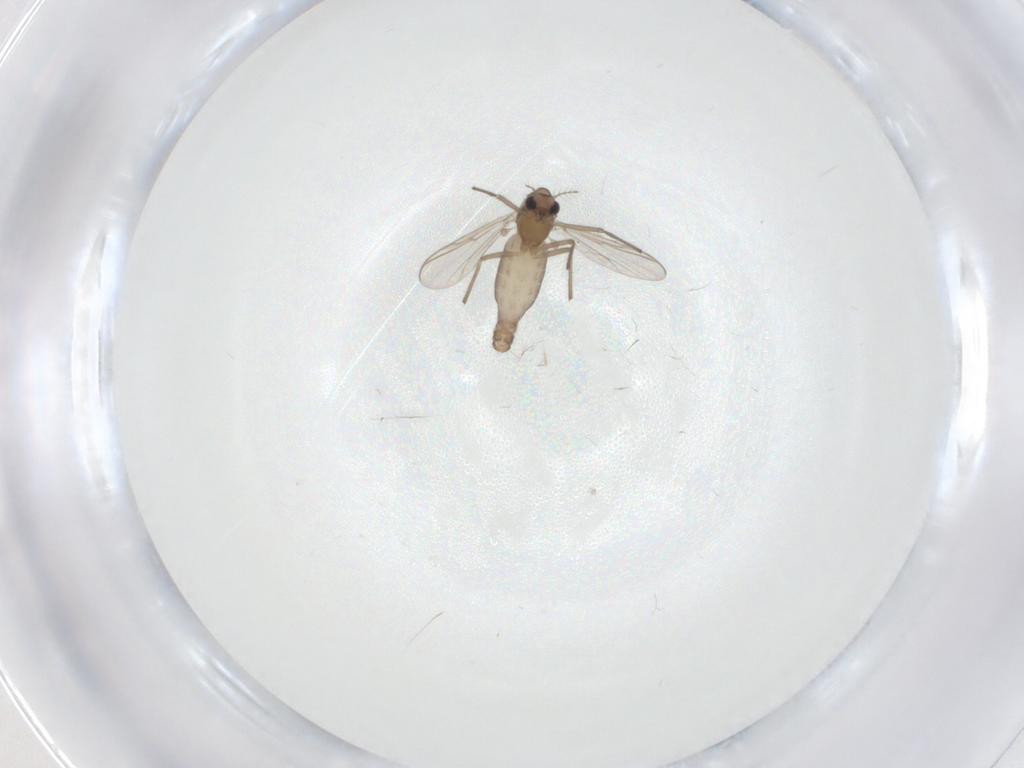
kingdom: Animalia
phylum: Arthropoda
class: Insecta
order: Diptera
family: Chironomidae
